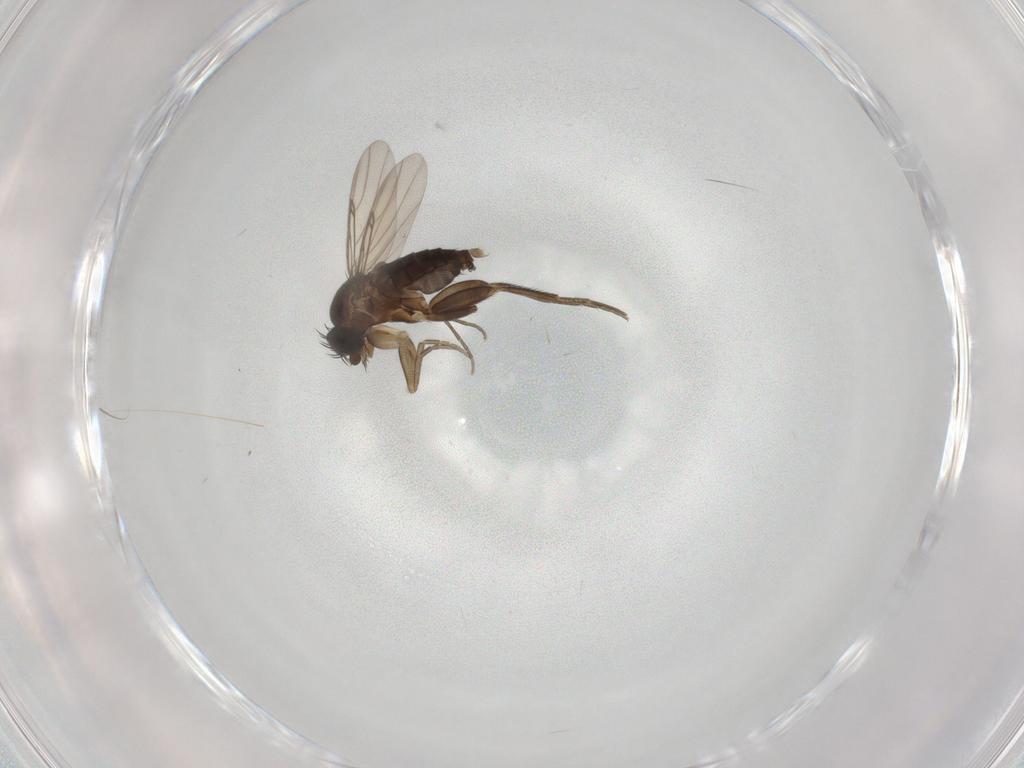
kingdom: Animalia
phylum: Arthropoda
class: Insecta
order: Diptera
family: Phoridae
